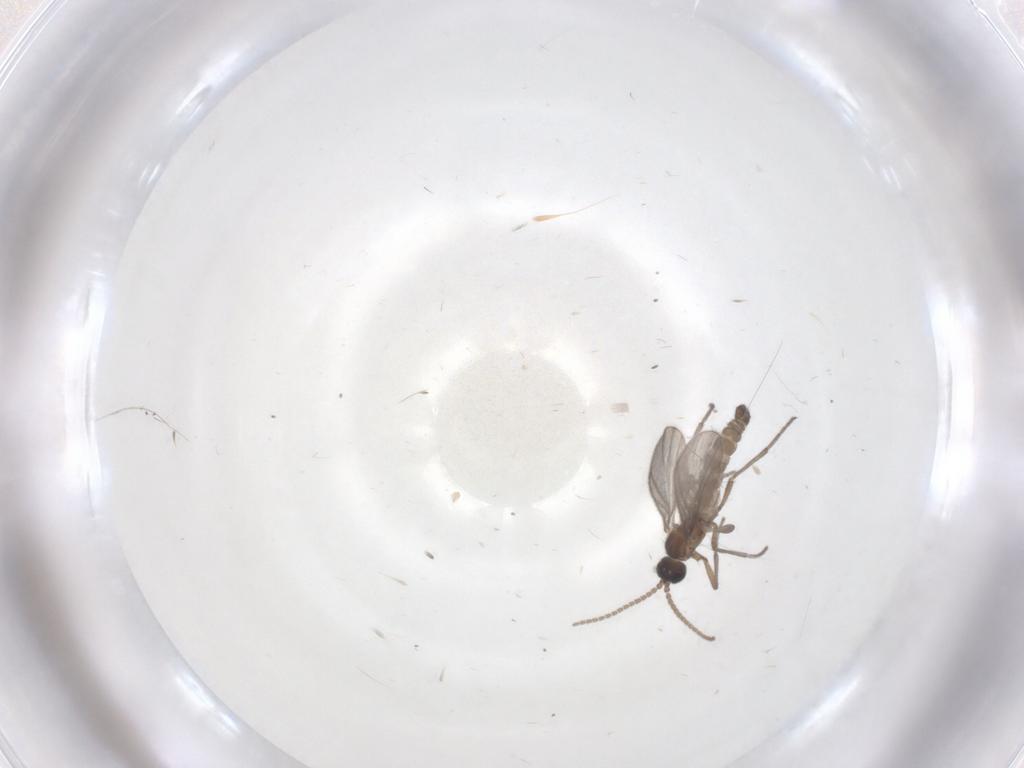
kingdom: Animalia
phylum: Arthropoda
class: Insecta
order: Diptera
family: Sciaridae
